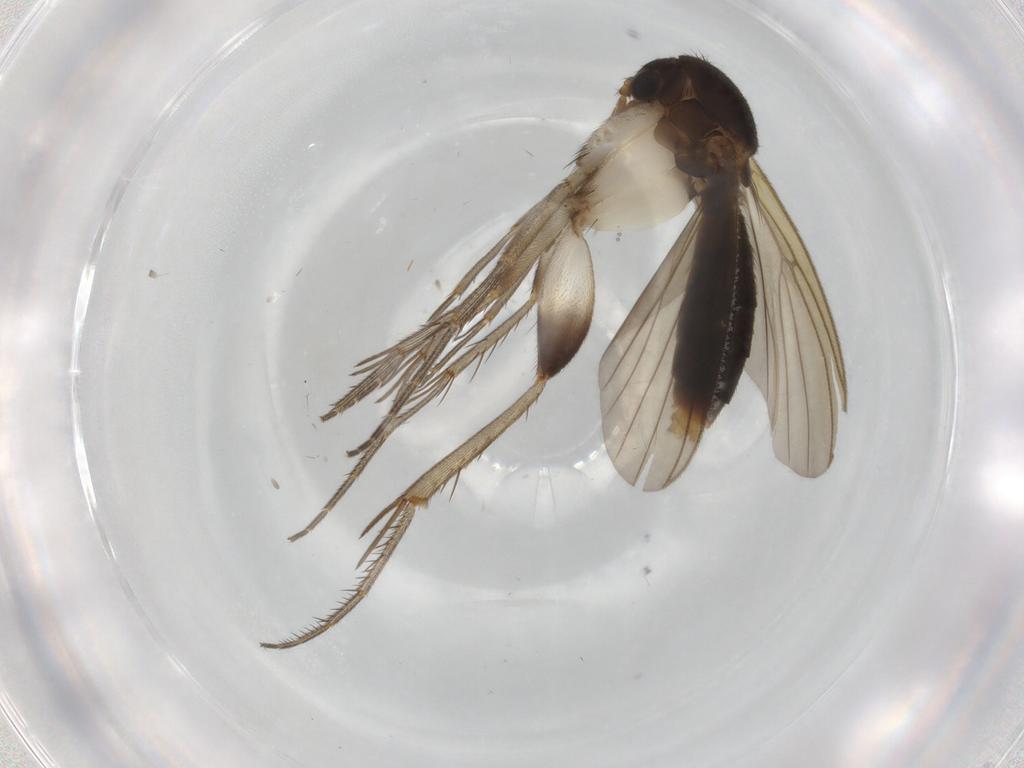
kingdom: Animalia
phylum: Arthropoda
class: Insecta
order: Diptera
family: Mycetophilidae
